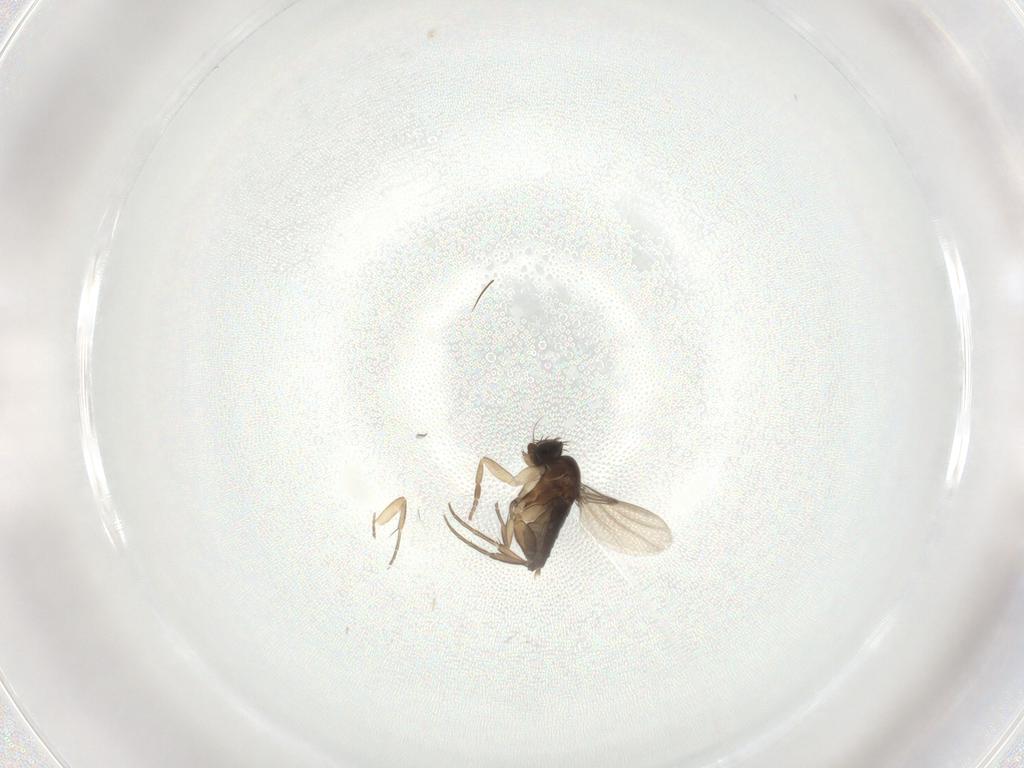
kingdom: Animalia
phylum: Arthropoda
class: Insecta
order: Diptera
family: Phoridae
